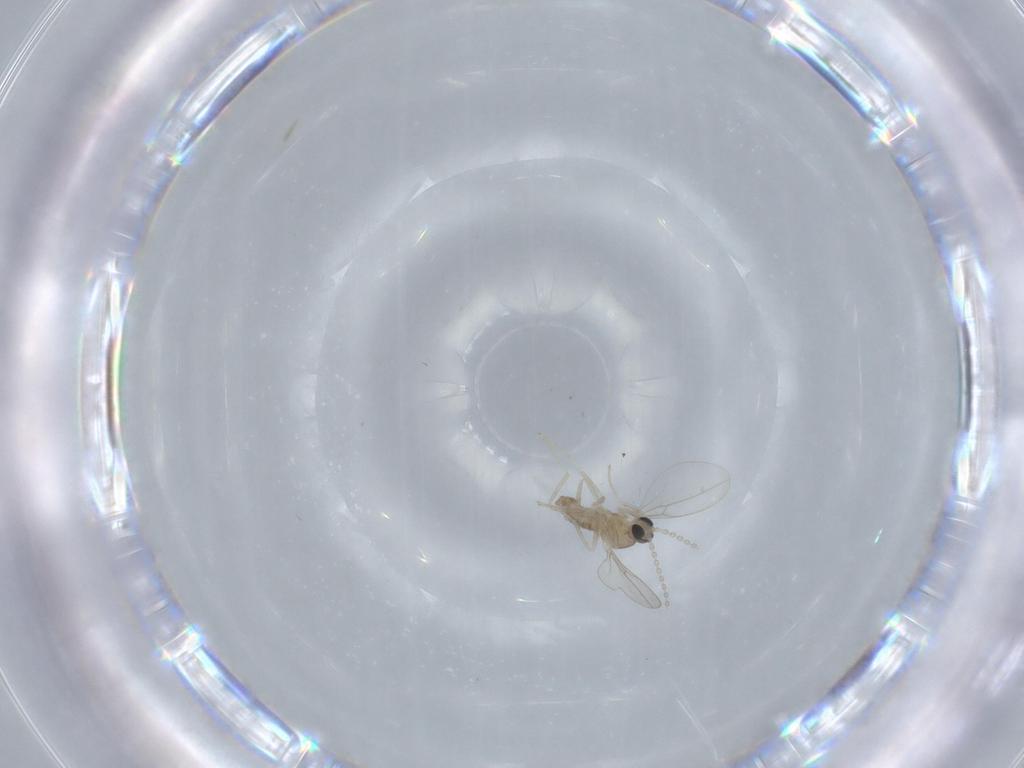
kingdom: Animalia
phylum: Arthropoda
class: Insecta
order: Diptera
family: Cecidomyiidae
